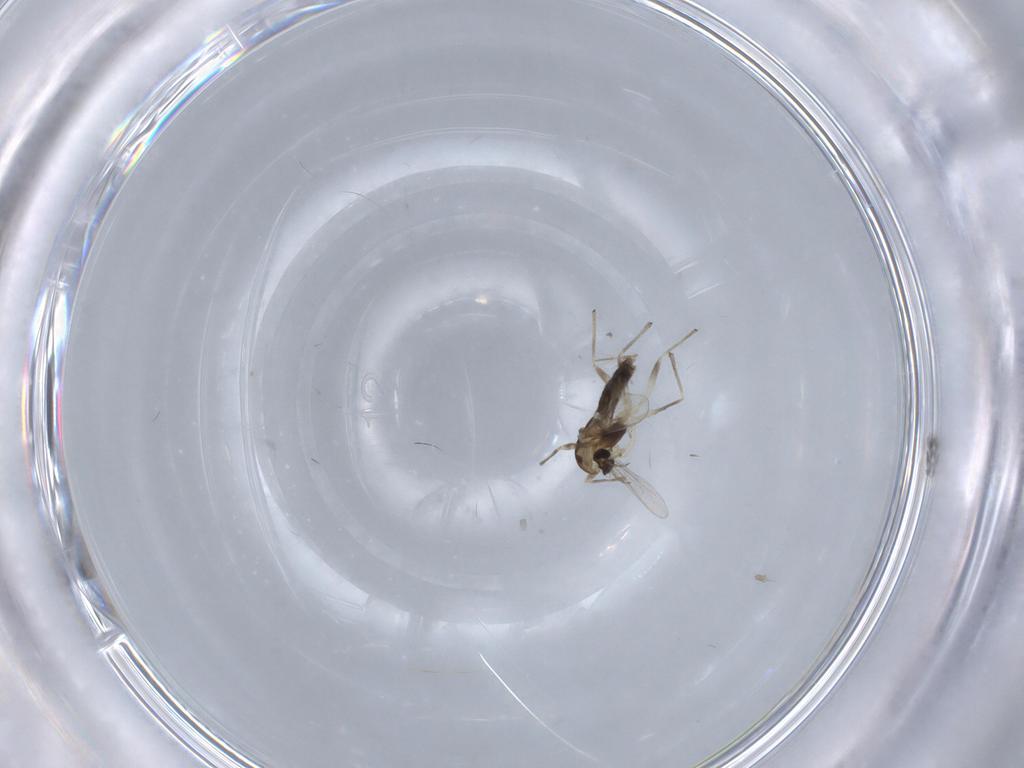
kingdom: Animalia
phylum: Arthropoda
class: Insecta
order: Diptera
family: Chironomidae
